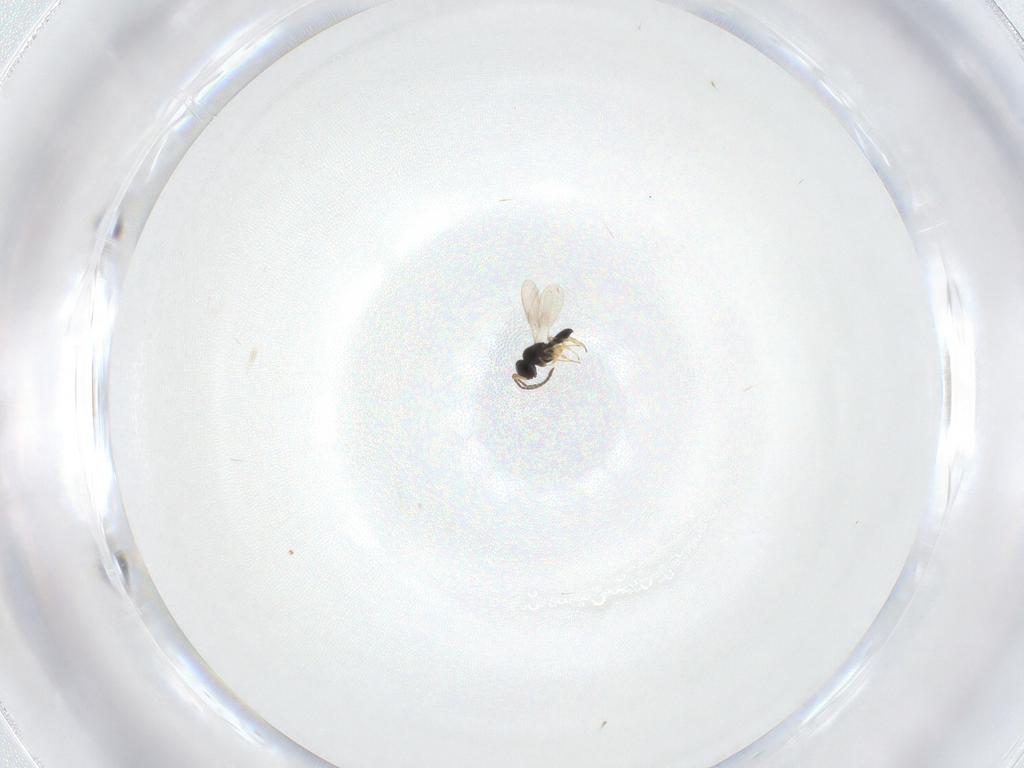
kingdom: Animalia
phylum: Arthropoda
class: Insecta
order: Hymenoptera
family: Scelionidae
